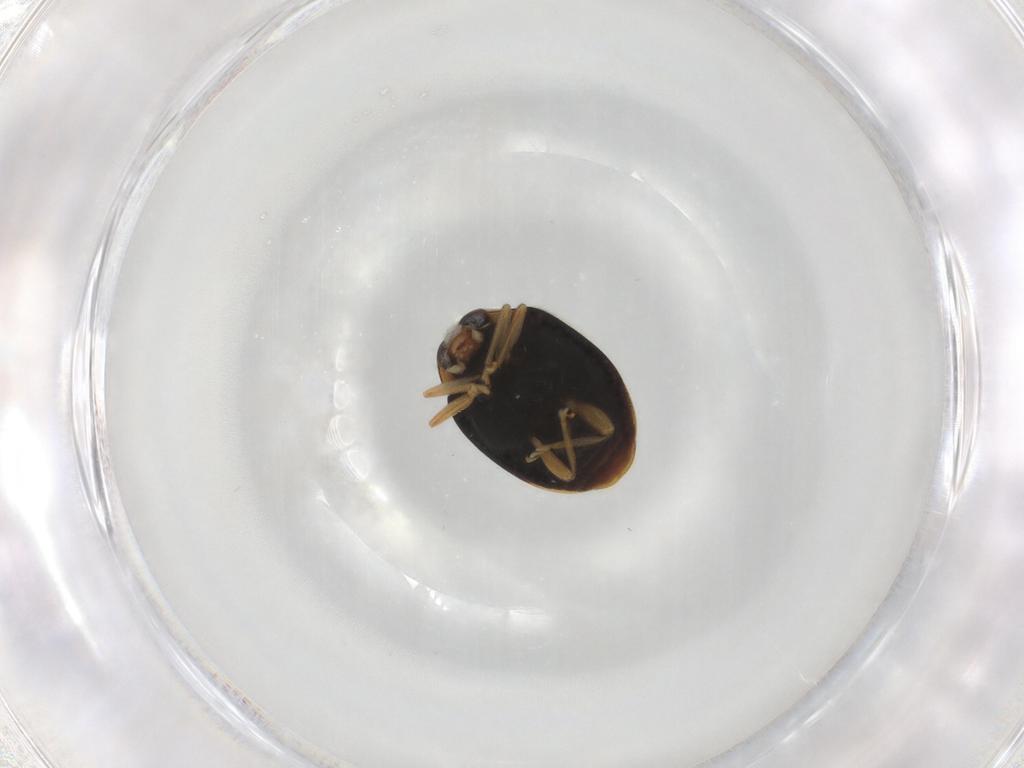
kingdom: Animalia
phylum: Arthropoda
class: Insecta
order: Coleoptera
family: Coccinellidae
